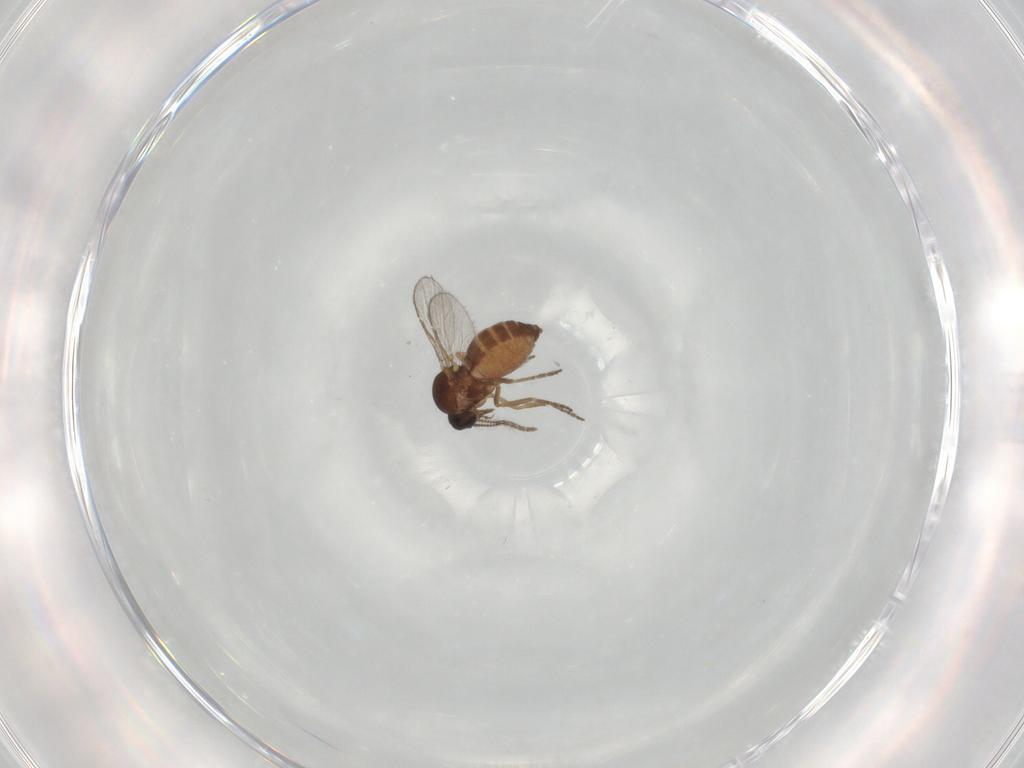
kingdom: Animalia
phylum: Arthropoda
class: Insecta
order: Diptera
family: Ceratopogonidae
